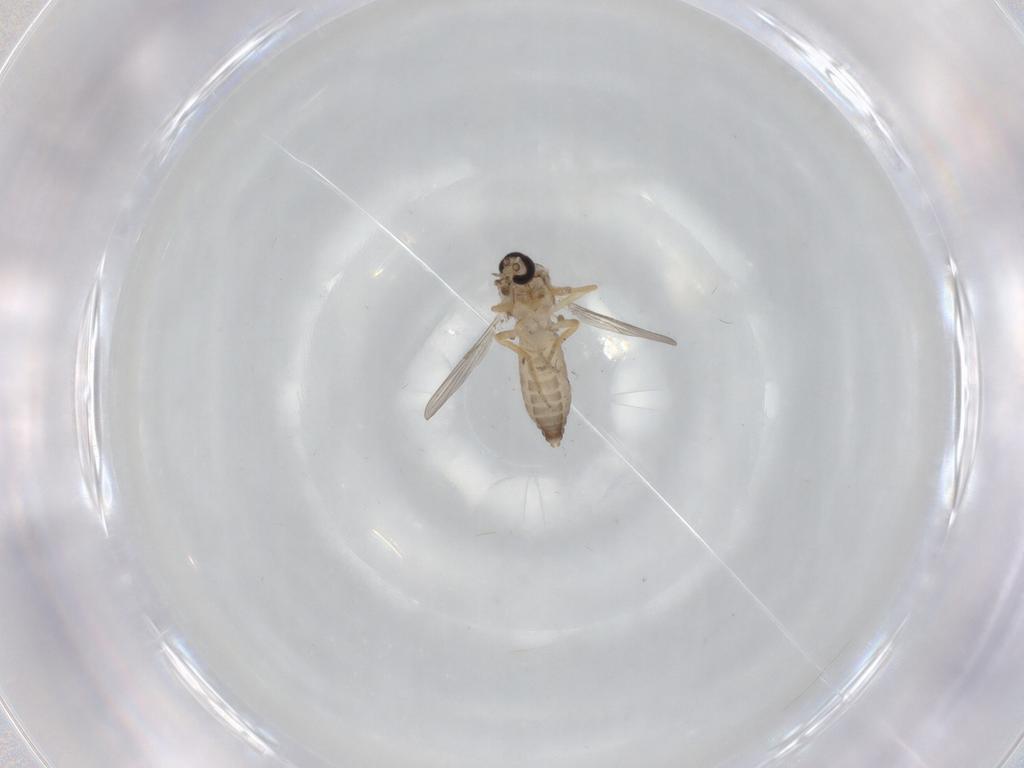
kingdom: Animalia
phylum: Arthropoda
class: Insecta
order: Diptera
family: Ceratopogonidae
